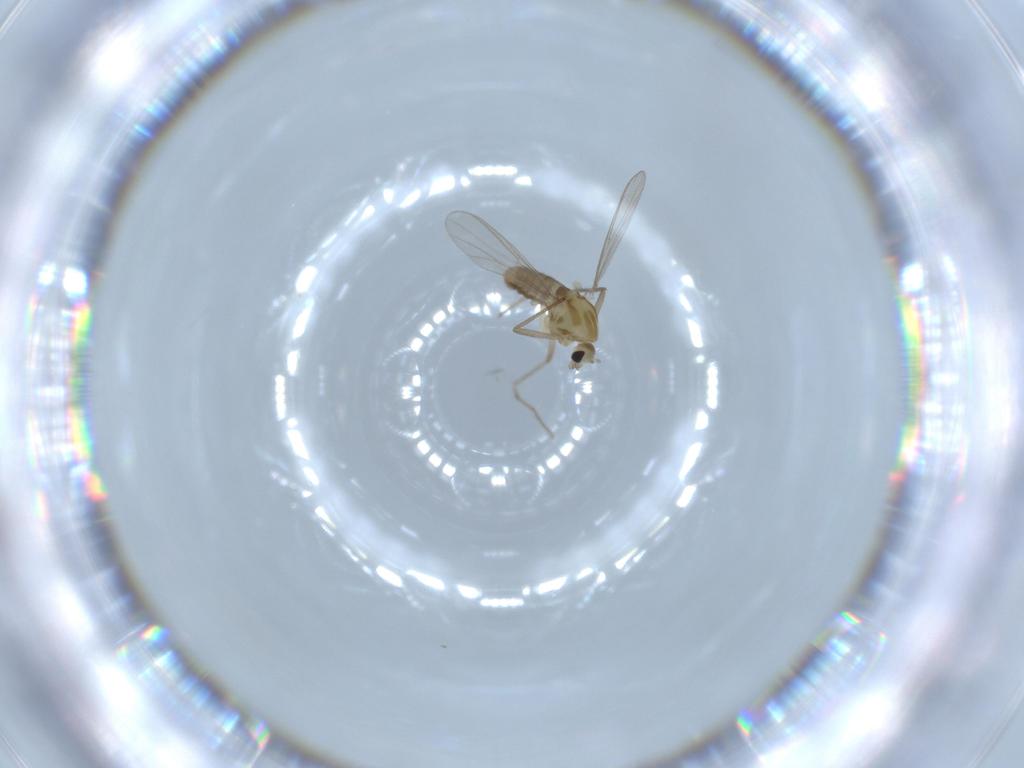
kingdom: Animalia
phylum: Arthropoda
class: Insecta
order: Diptera
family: Chironomidae
